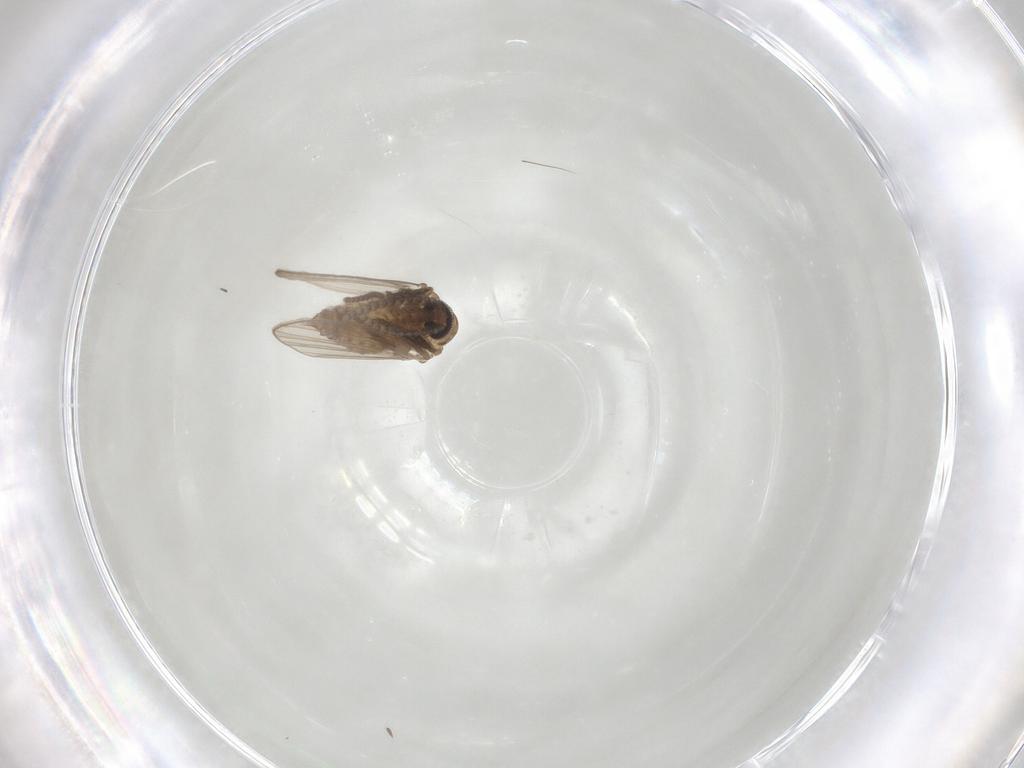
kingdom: Animalia
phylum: Arthropoda
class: Insecta
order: Diptera
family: Psychodidae
